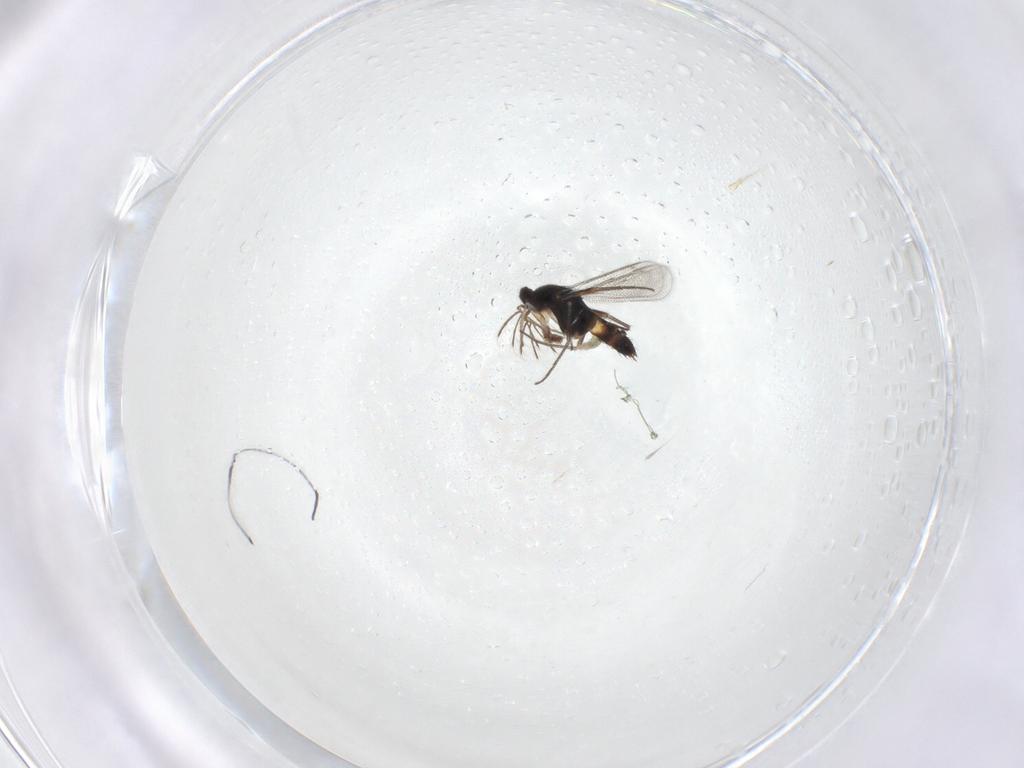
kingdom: Animalia
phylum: Arthropoda
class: Insecta
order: Hymenoptera
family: Eulophidae
